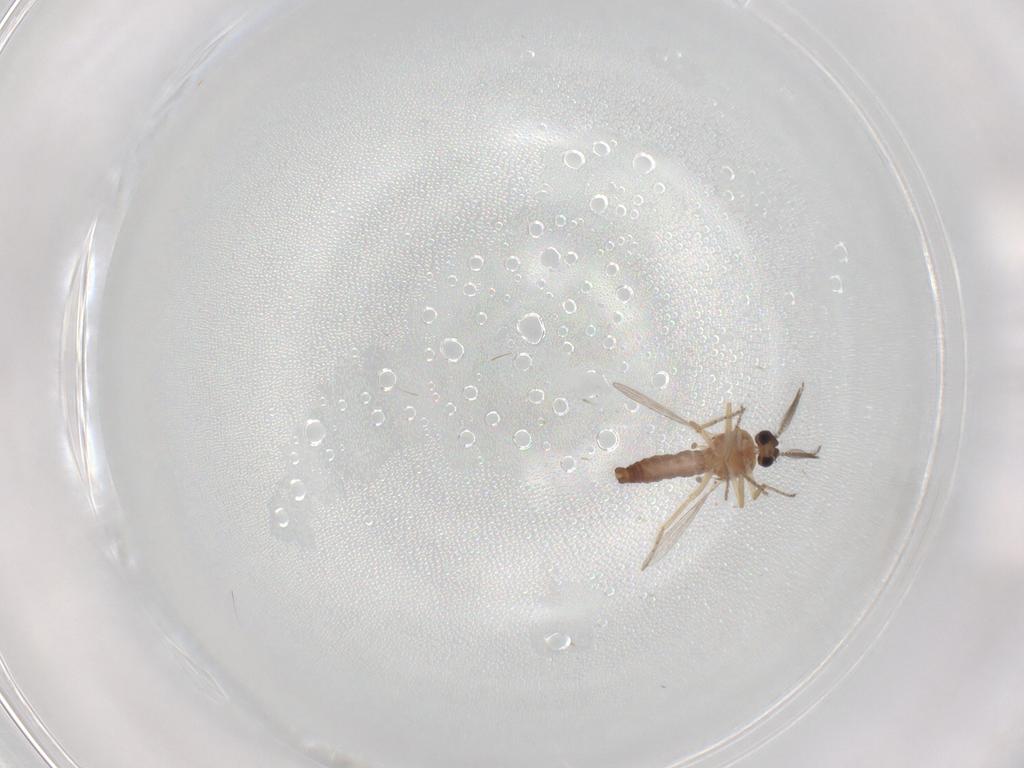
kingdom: Animalia
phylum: Arthropoda
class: Insecta
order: Diptera
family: Ceratopogonidae
